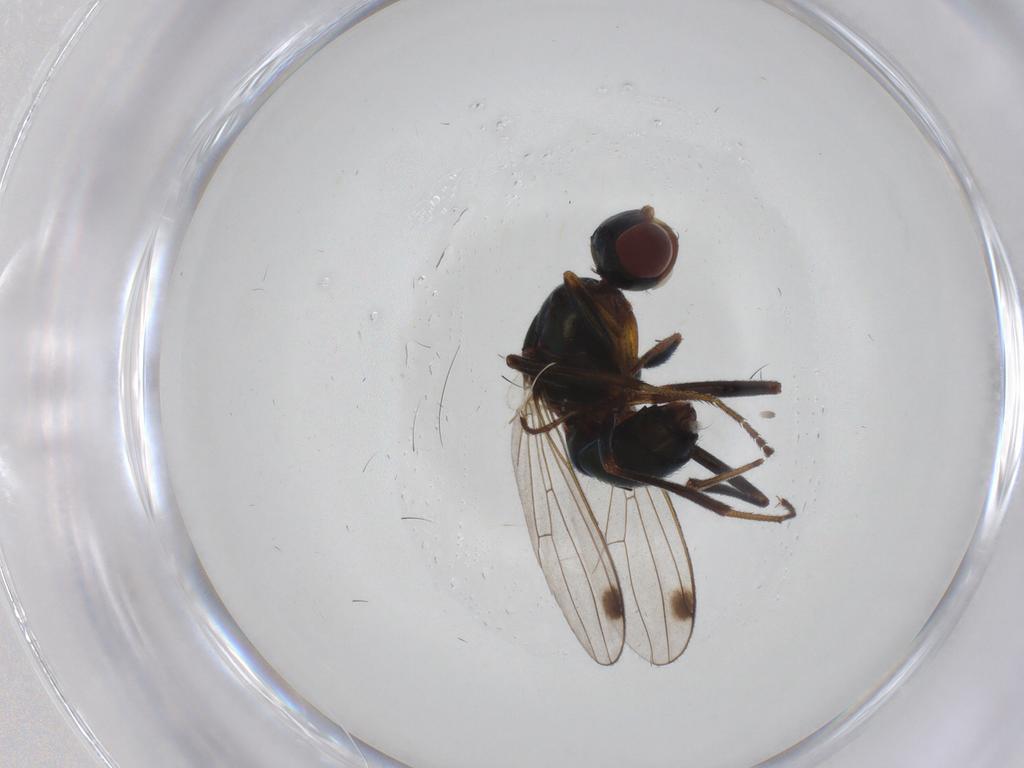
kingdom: Animalia
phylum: Arthropoda
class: Insecta
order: Diptera
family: Sepsidae
